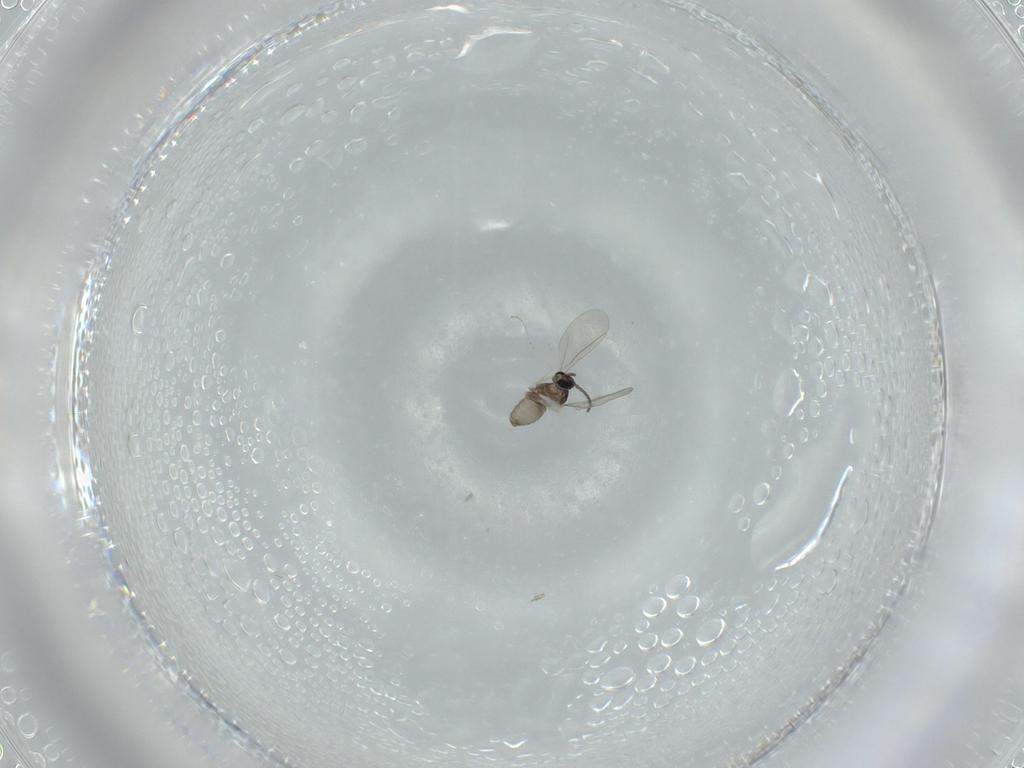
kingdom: Animalia
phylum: Arthropoda
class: Insecta
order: Diptera
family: Cecidomyiidae
